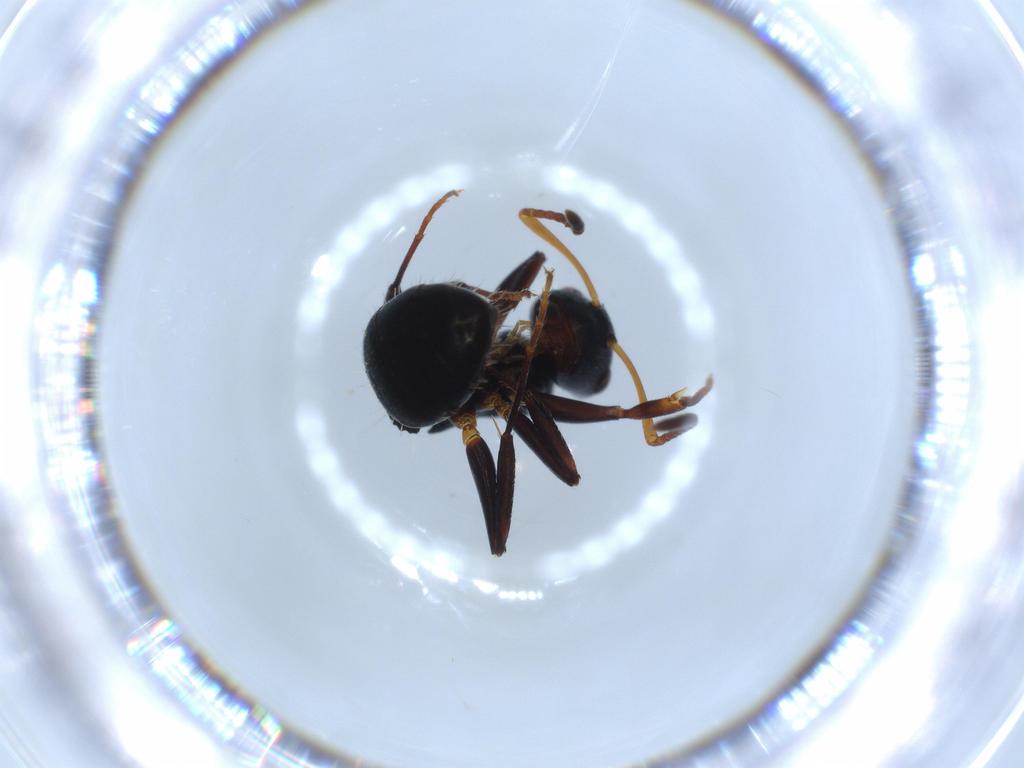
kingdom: Animalia
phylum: Arthropoda
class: Insecta
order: Hymenoptera
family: Formicidae
